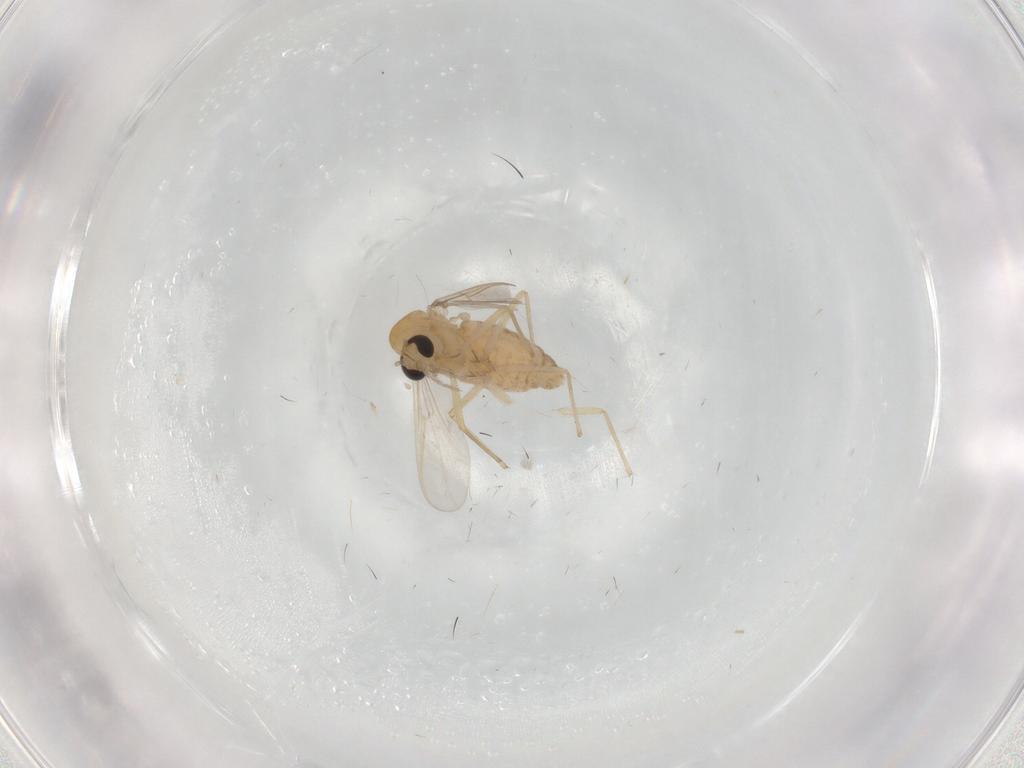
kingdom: Animalia
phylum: Arthropoda
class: Insecta
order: Diptera
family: Chironomidae
